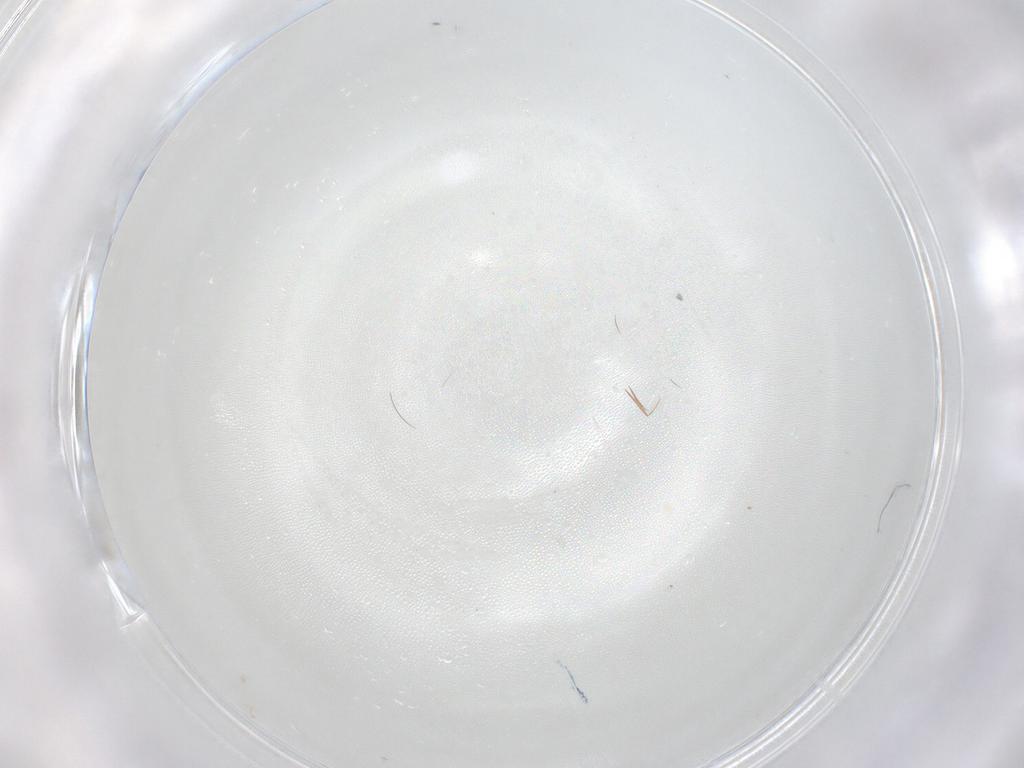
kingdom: Animalia
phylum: Arthropoda
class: Insecta
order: Hymenoptera
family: Ceraphronidae
